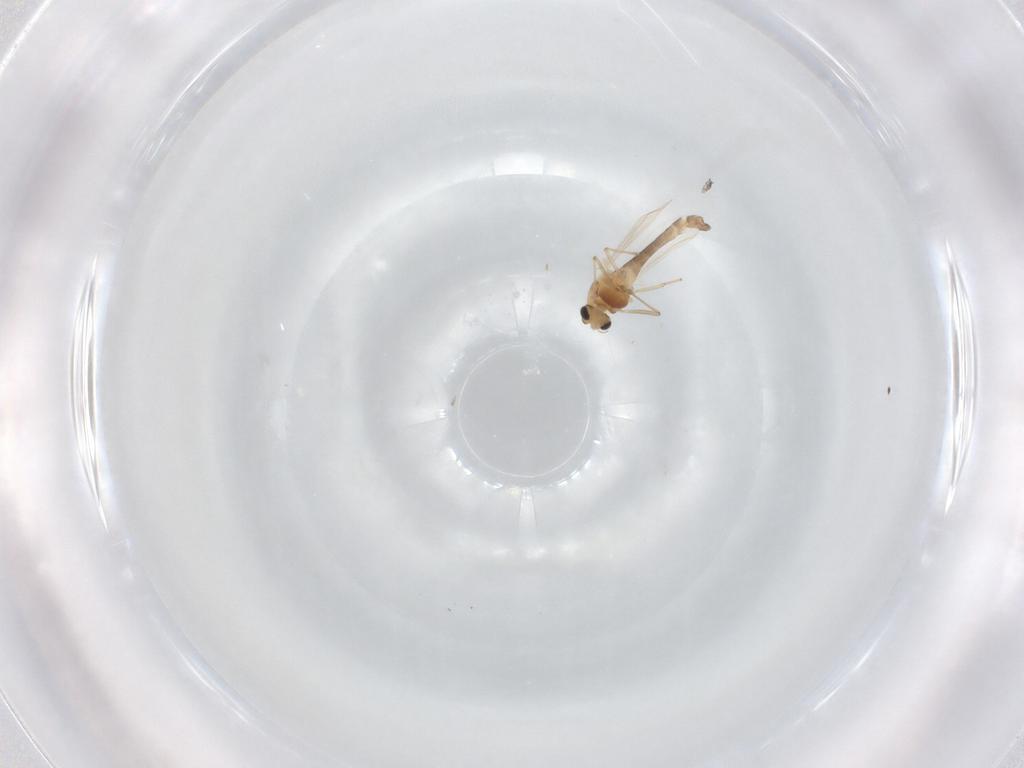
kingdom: Animalia
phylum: Arthropoda
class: Insecta
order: Diptera
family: Chironomidae
